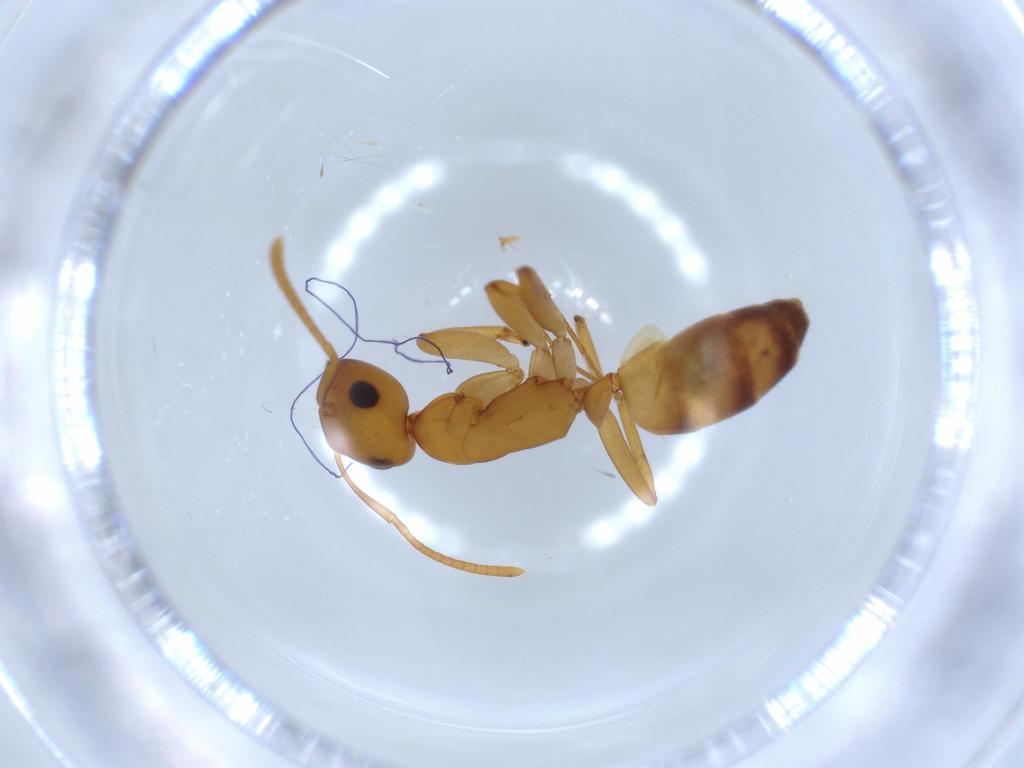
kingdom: Animalia
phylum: Arthropoda
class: Insecta
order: Hymenoptera
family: Formicidae
